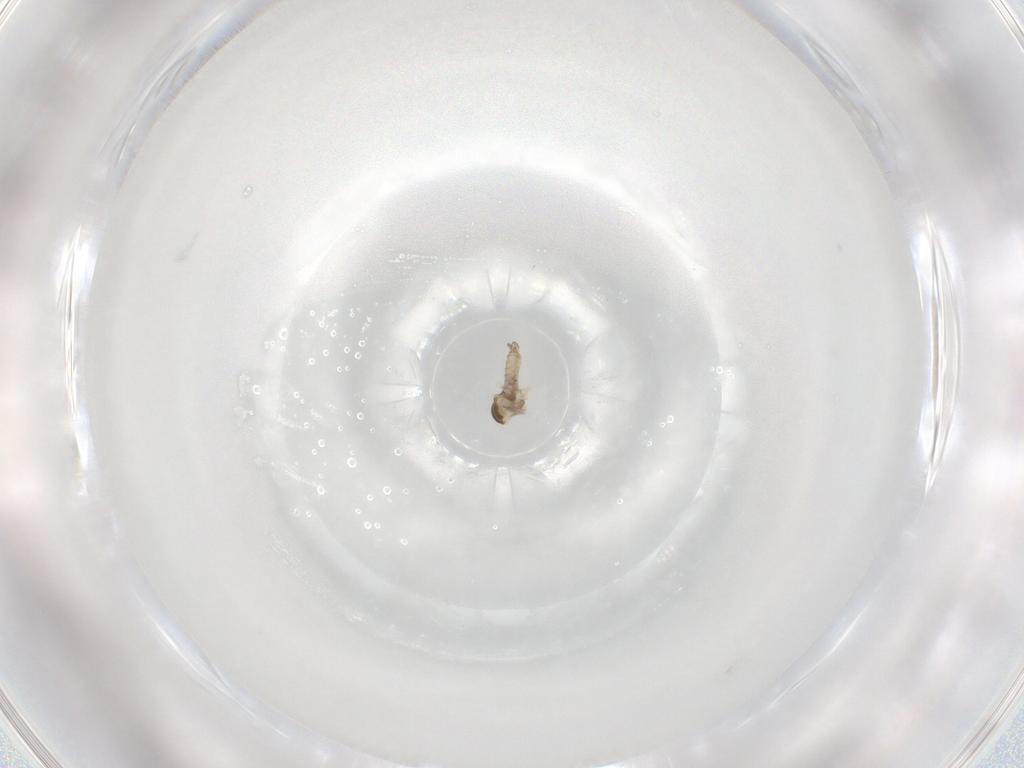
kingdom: Animalia
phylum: Arthropoda
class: Insecta
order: Diptera
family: Cecidomyiidae
